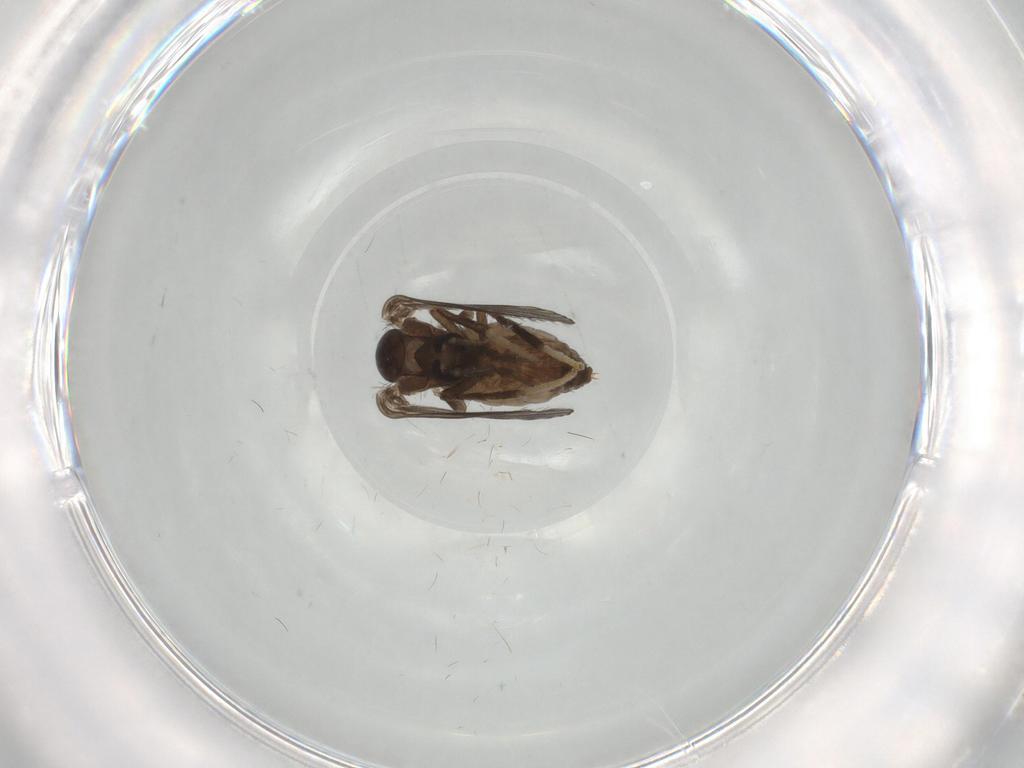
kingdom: Animalia
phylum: Arthropoda
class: Insecta
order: Diptera
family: Psychodidae
